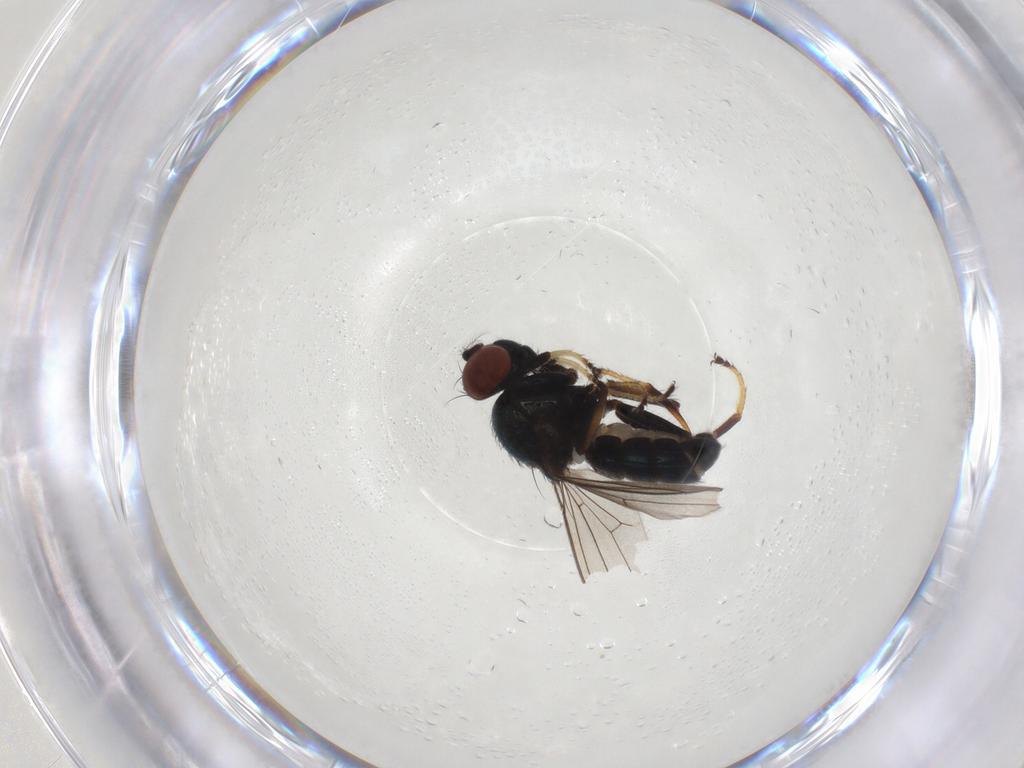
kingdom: Animalia
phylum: Arthropoda
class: Insecta
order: Diptera
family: Ephydridae
